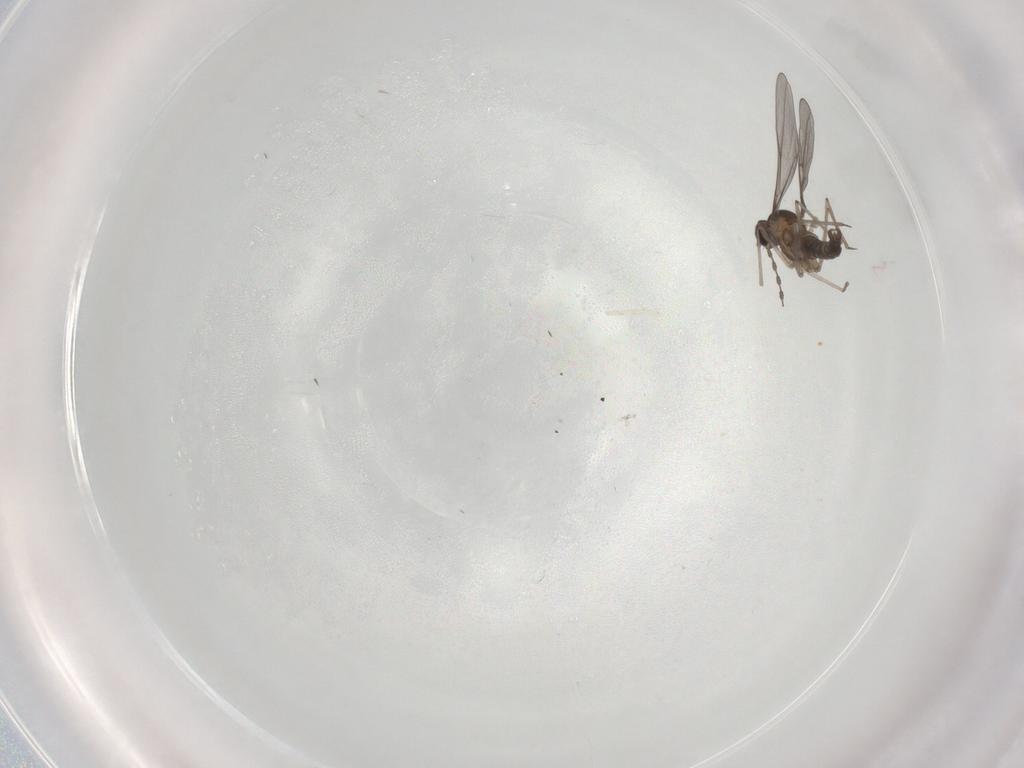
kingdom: Animalia
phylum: Arthropoda
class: Insecta
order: Diptera
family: Cecidomyiidae
